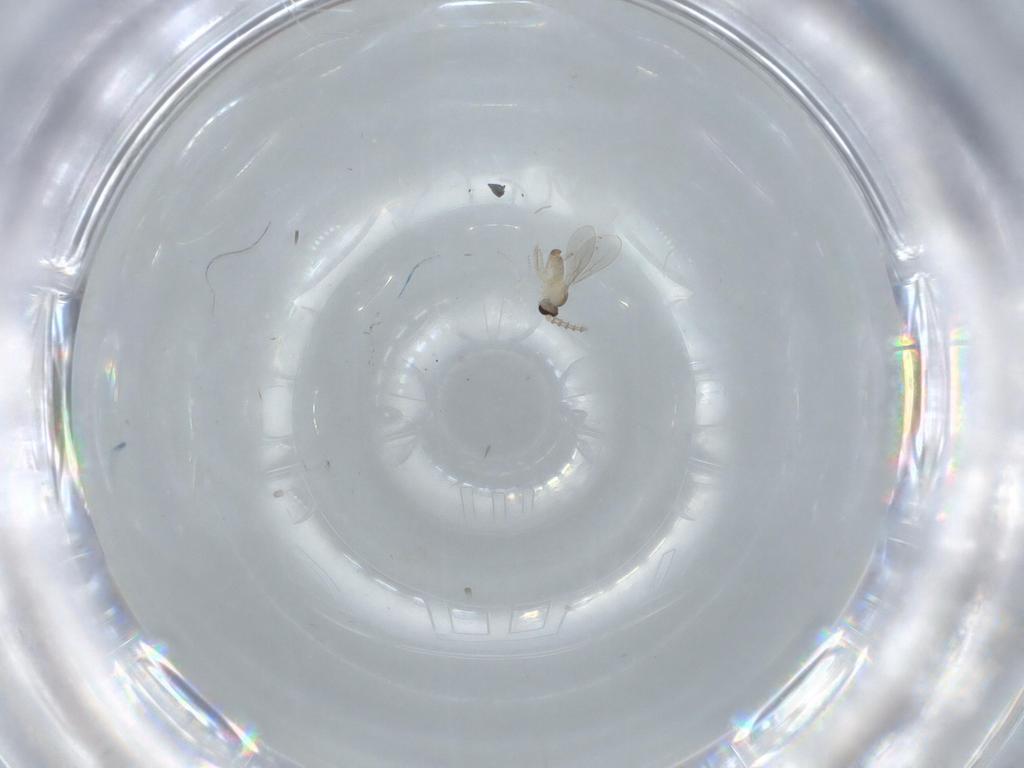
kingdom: Animalia
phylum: Arthropoda
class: Insecta
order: Diptera
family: Cecidomyiidae
